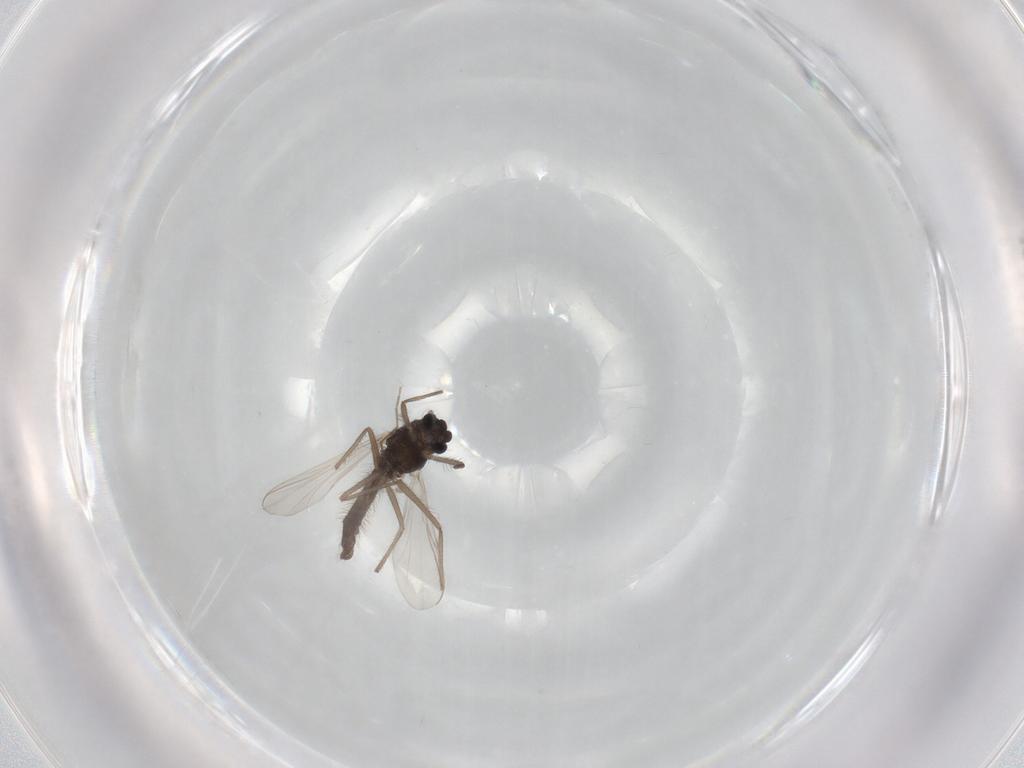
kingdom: Animalia
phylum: Arthropoda
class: Insecta
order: Diptera
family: Chironomidae
